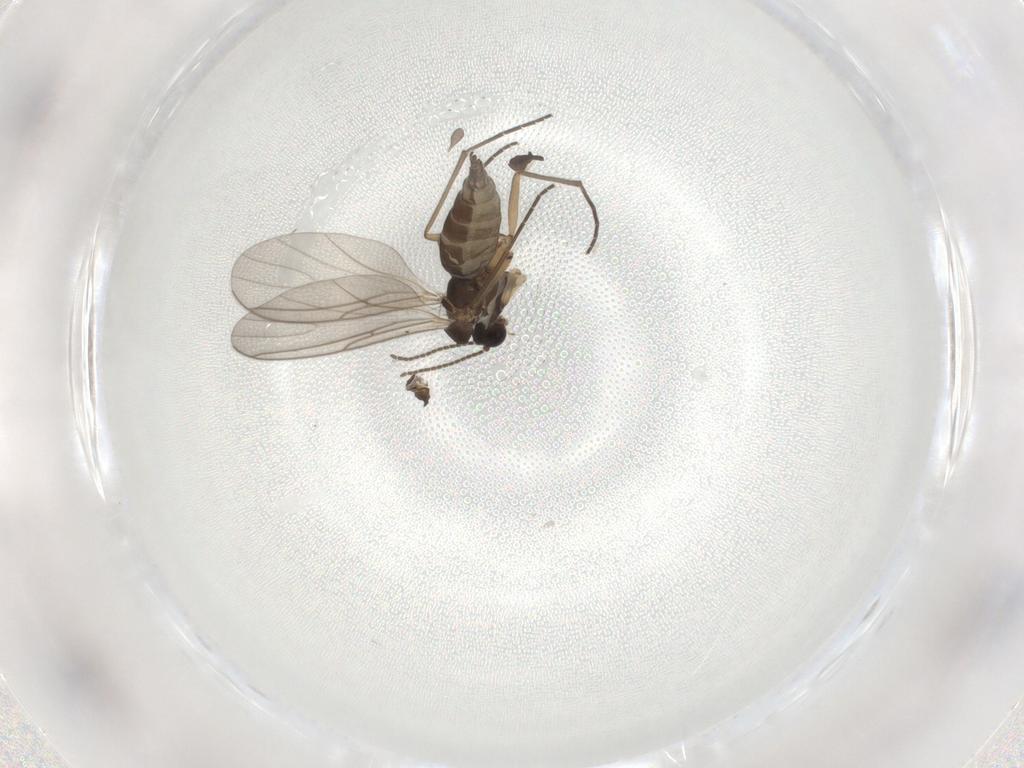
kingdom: Animalia
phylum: Arthropoda
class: Insecta
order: Diptera
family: Sciaridae
